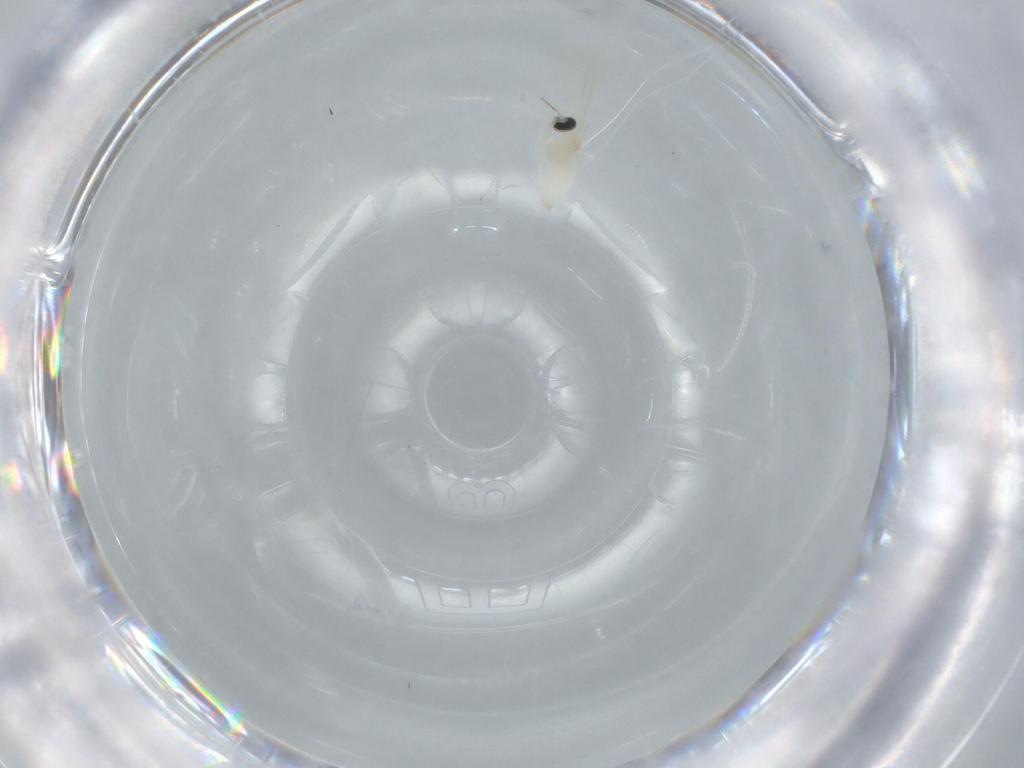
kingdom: Animalia
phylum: Arthropoda
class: Insecta
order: Diptera
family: Cecidomyiidae
